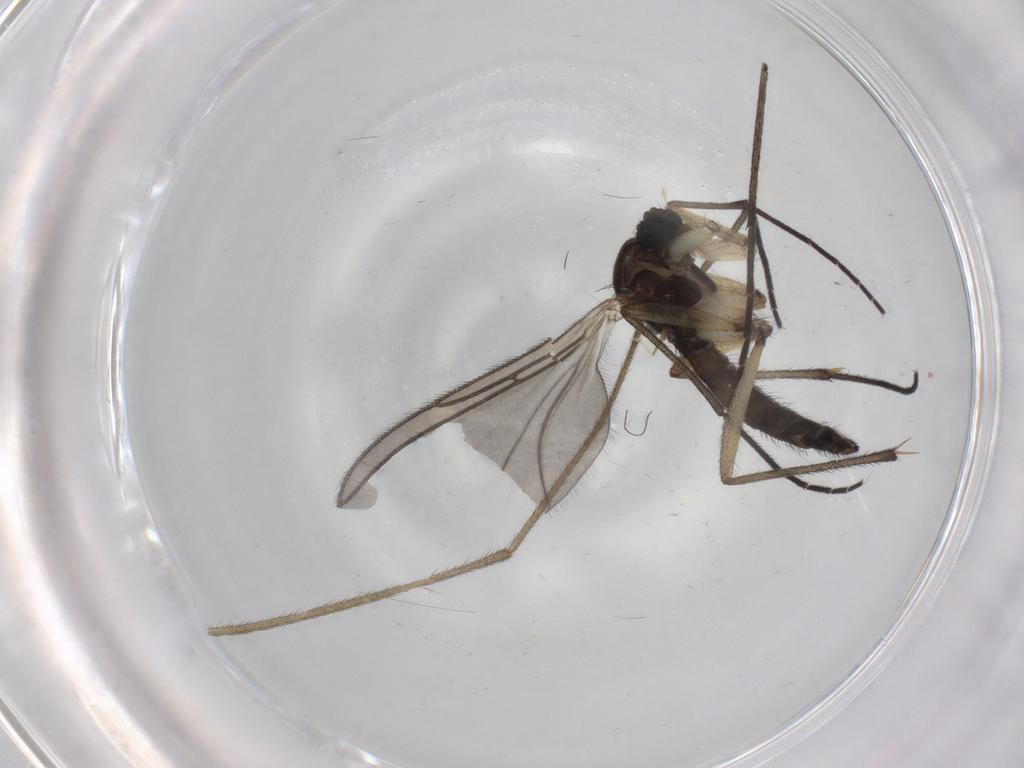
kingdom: Animalia
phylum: Arthropoda
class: Insecta
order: Diptera
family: Sciaridae
